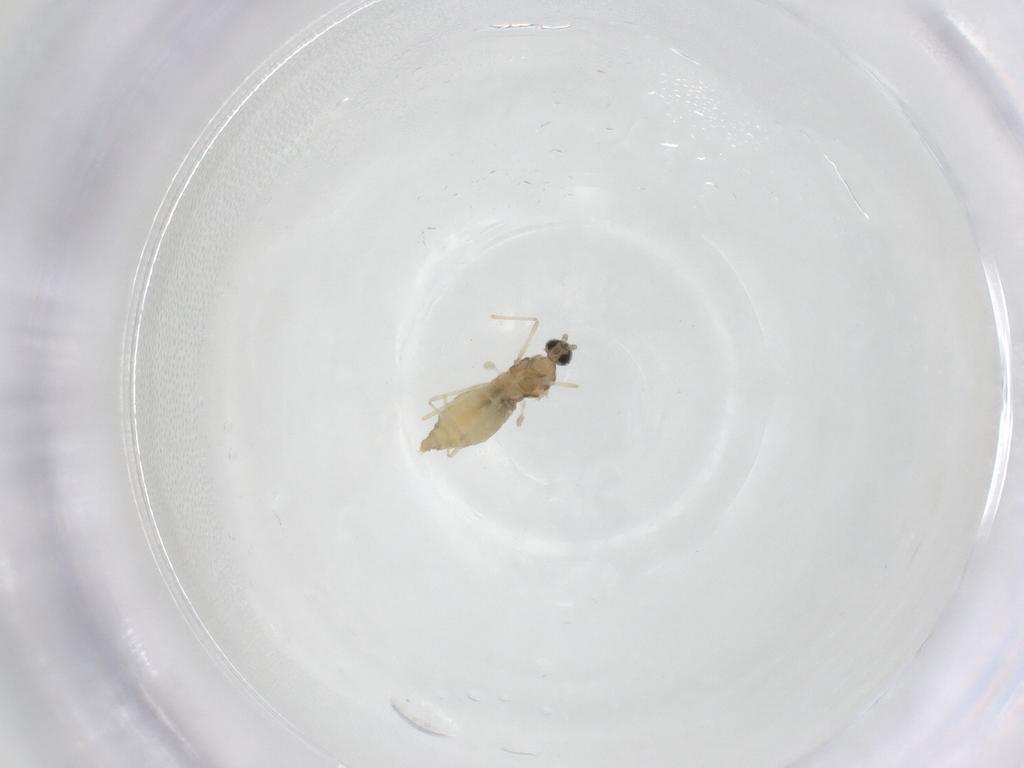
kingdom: Animalia
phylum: Arthropoda
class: Insecta
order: Diptera
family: Cecidomyiidae
